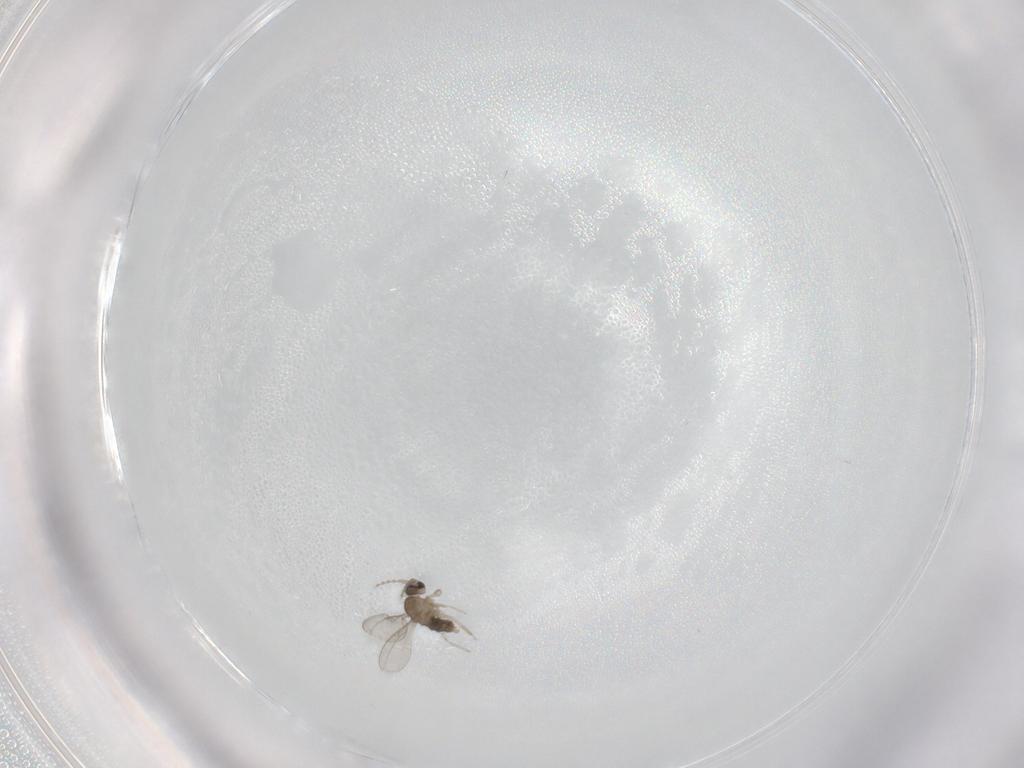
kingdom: Animalia
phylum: Arthropoda
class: Insecta
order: Diptera
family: Cecidomyiidae
